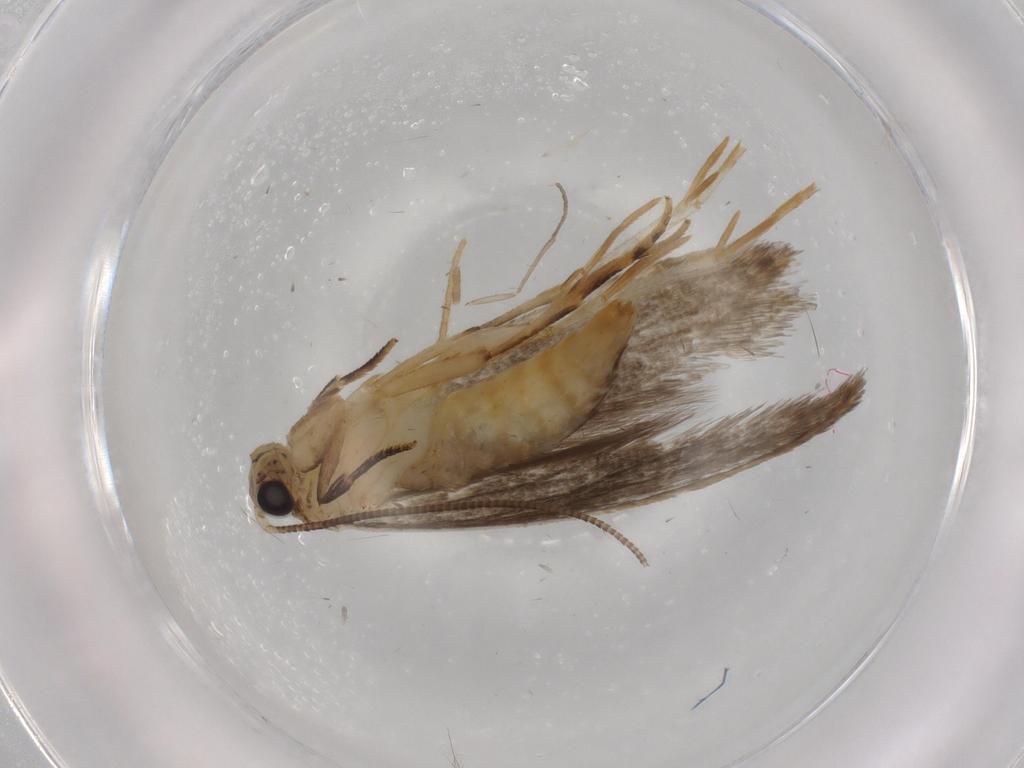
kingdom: Animalia
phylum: Arthropoda
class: Insecta
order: Lepidoptera
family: Tineidae
